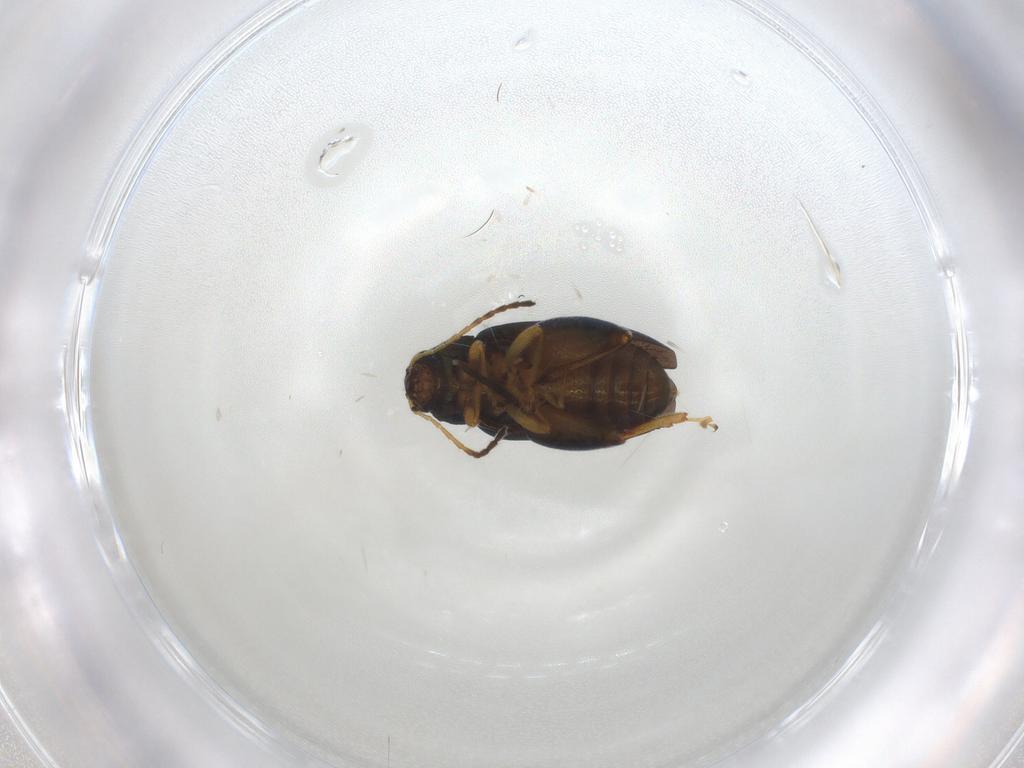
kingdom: Animalia
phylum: Arthropoda
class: Insecta
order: Coleoptera
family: Chrysomelidae
